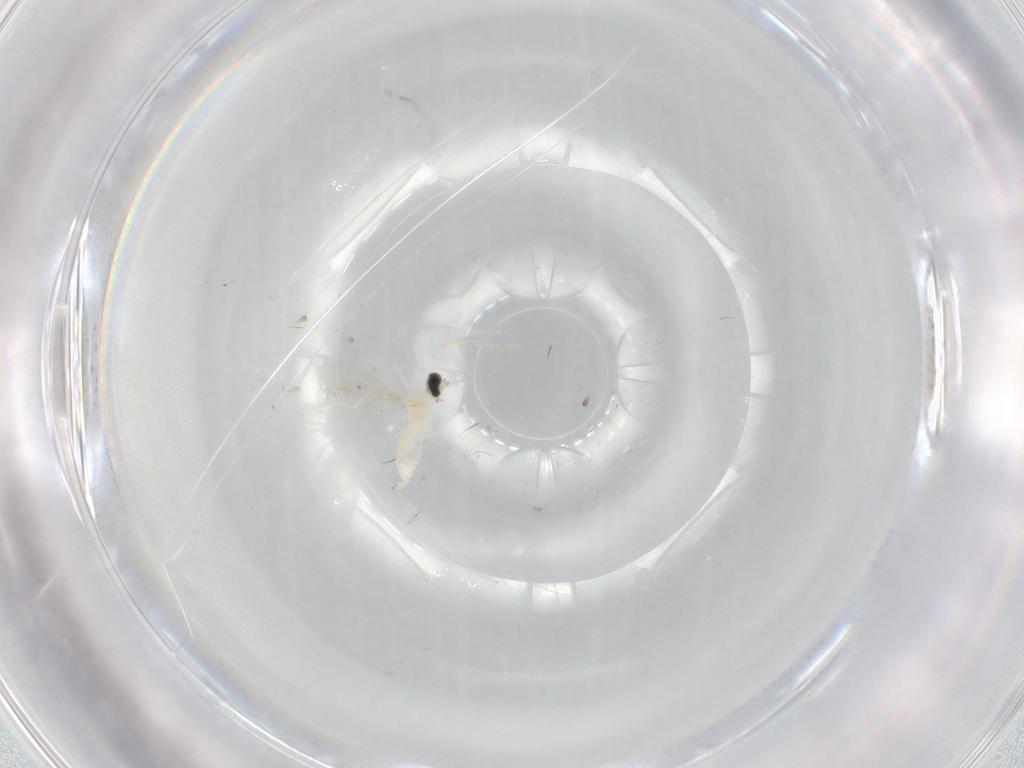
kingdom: Animalia
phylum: Arthropoda
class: Insecta
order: Diptera
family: Cecidomyiidae
